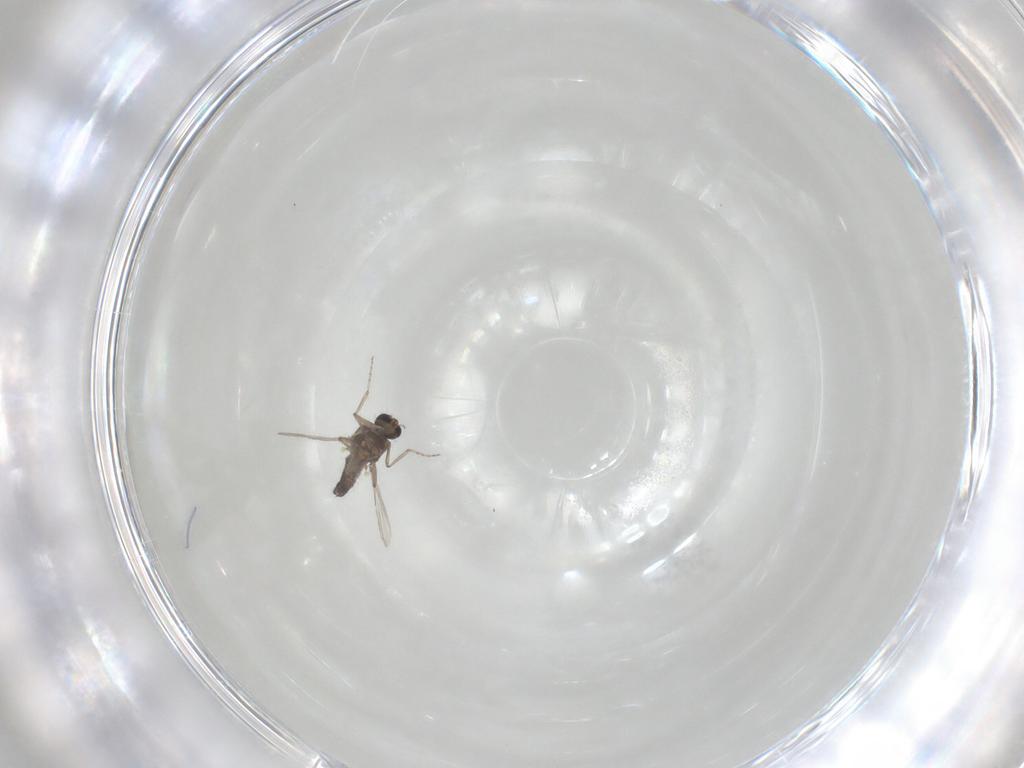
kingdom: Animalia
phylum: Arthropoda
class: Insecta
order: Diptera
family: Ceratopogonidae
